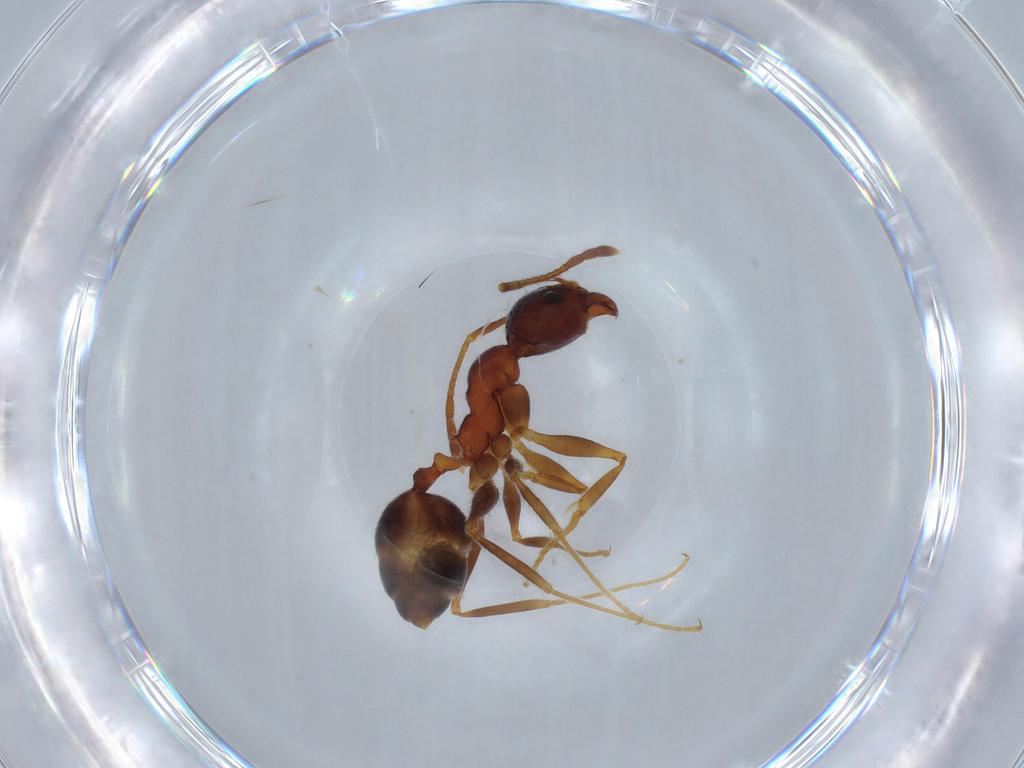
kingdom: Animalia
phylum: Arthropoda
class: Insecta
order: Hymenoptera
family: Formicidae
